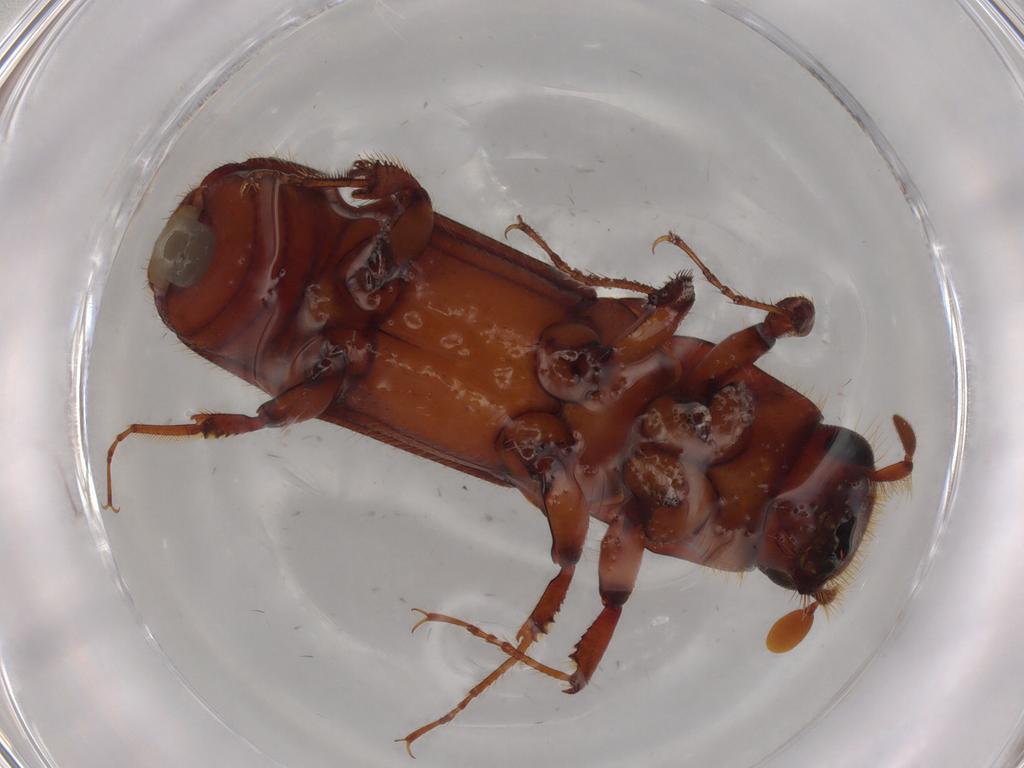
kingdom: Animalia
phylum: Arthropoda
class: Insecta
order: Coleoptera
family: Curculionidae
